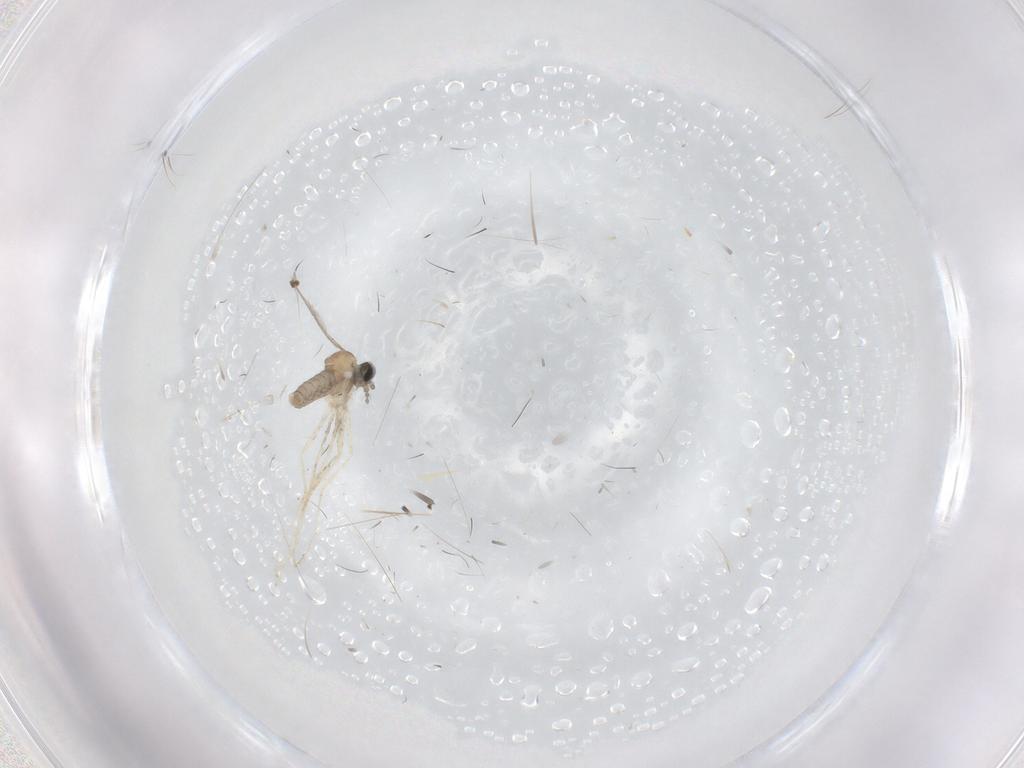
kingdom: Animalia
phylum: Arthropoda
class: Insecta
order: Diptera
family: Cecidomyiidae
